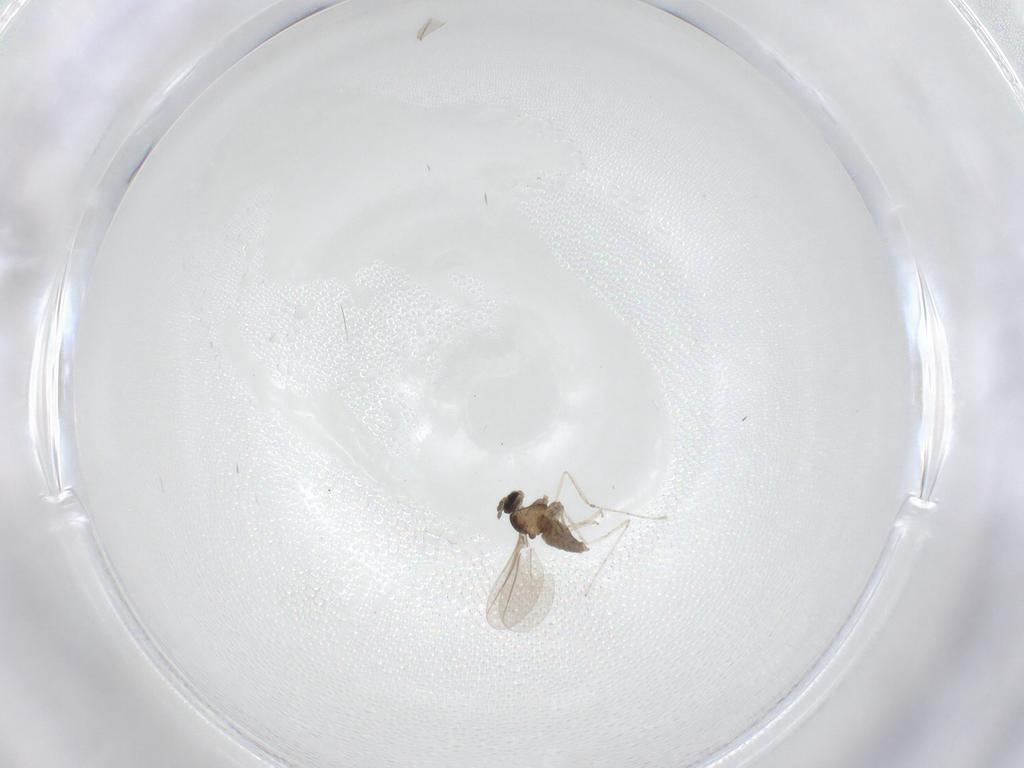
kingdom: Animalia
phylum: Arthropoda
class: Insecta
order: Diptera
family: Cecidomyiidae
